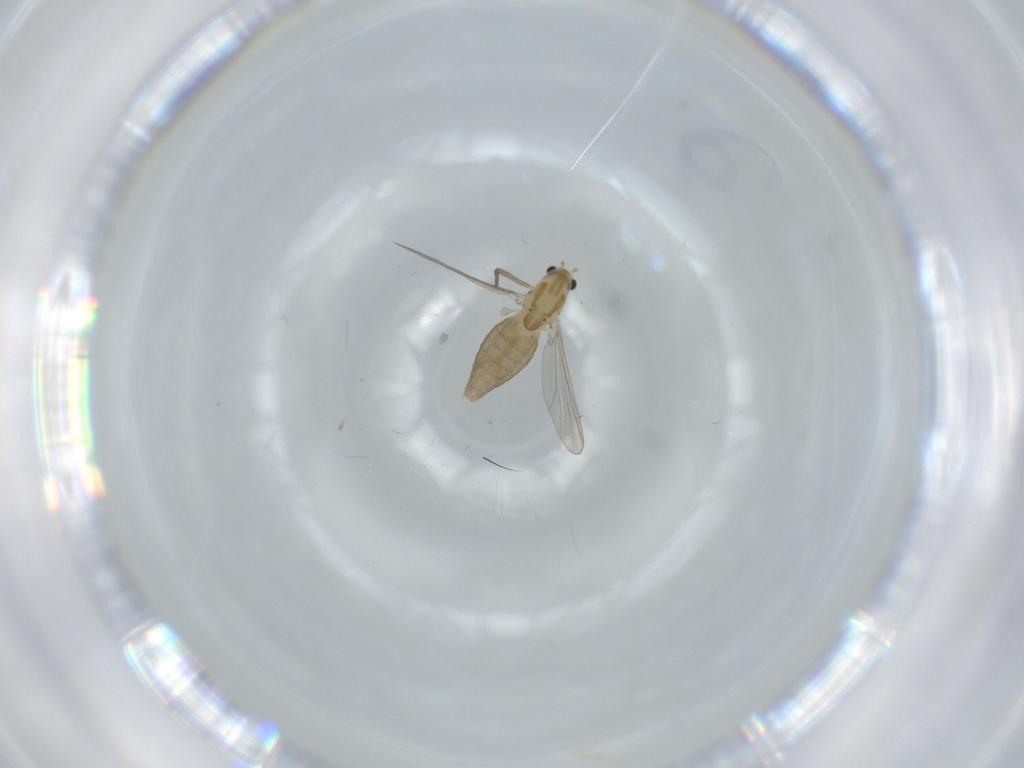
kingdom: Animalia
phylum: Arthropoda
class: Insecta
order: Diptera
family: Chironomidae
